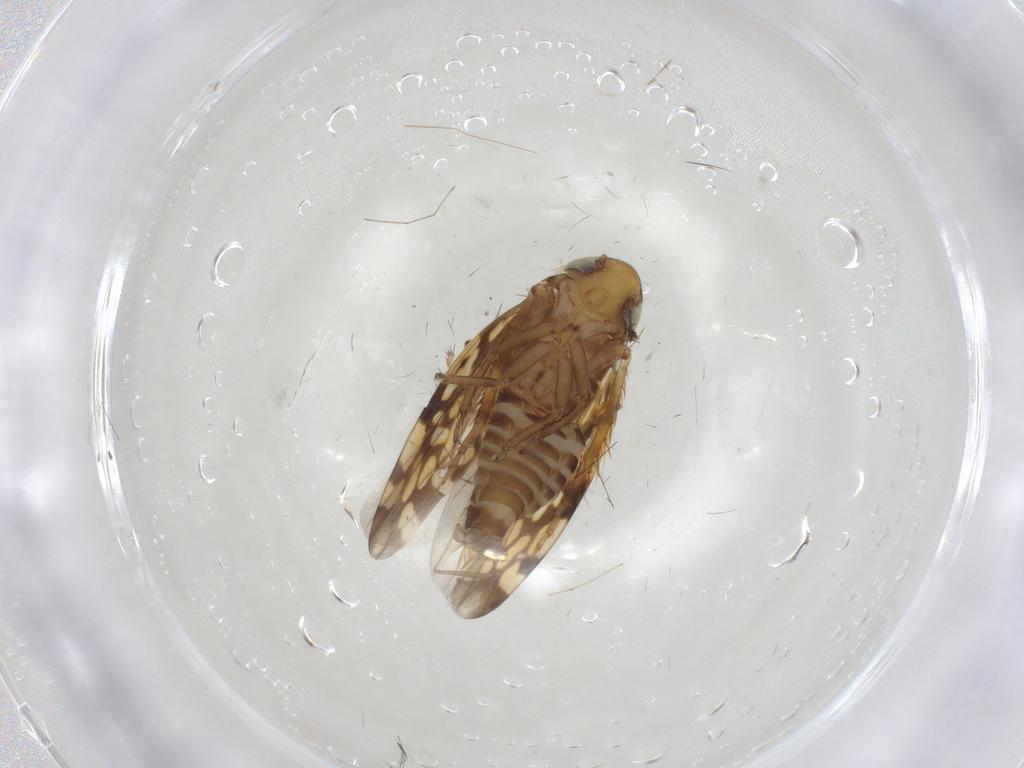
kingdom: Animalia
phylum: Arthropoda
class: Insecta
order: Hemiptera
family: Cicadellidae
